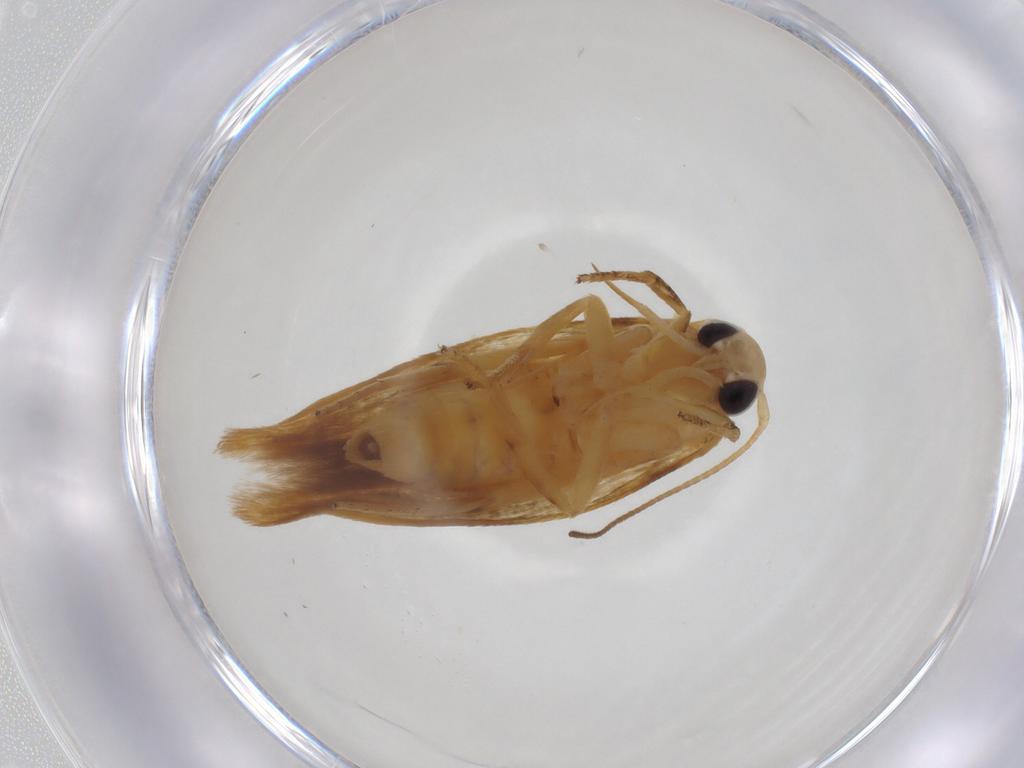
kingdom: Animalia
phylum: Arthropoda
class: Insecta
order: Lepidoptera
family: Stathmopodidae
